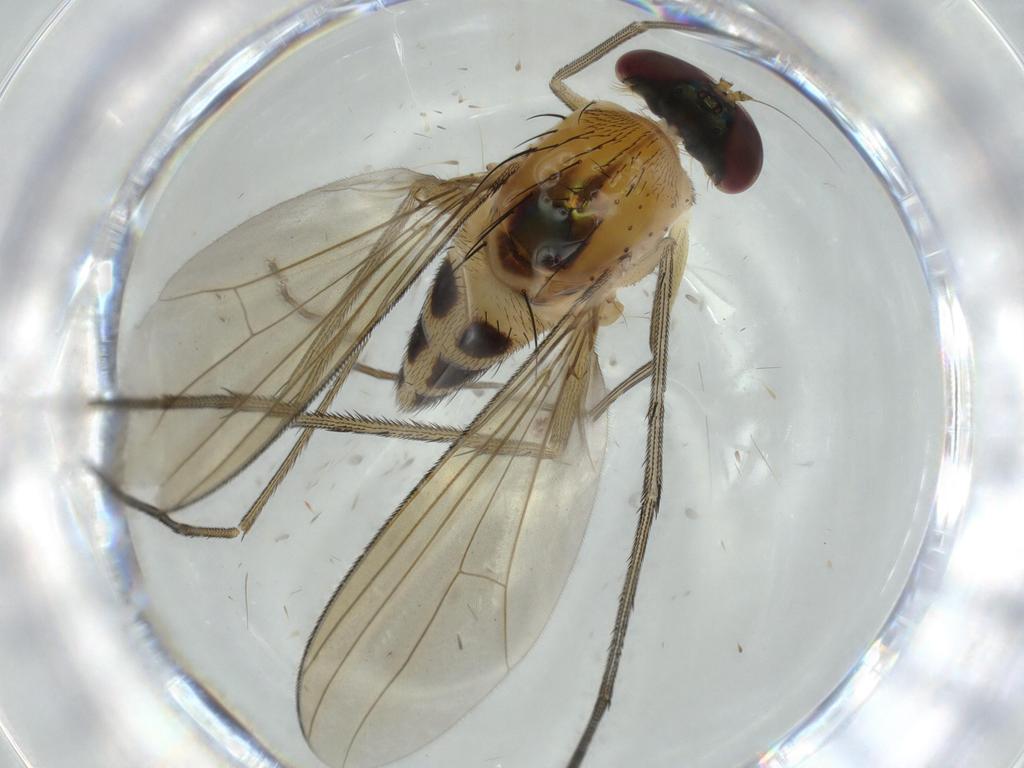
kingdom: Animalia
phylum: Arthropoda
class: Insecta
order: Diptera
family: Dolichopodidae
